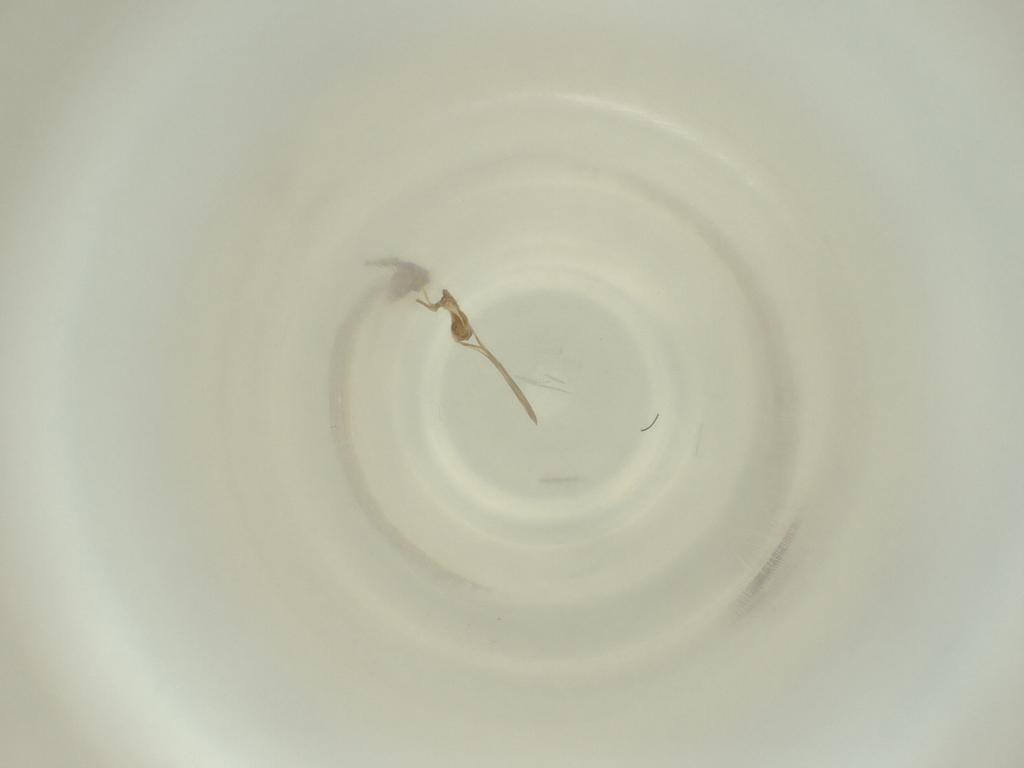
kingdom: Animalia
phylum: Arthropoda
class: Insecta
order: Diptera
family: Cecidomyiidae
